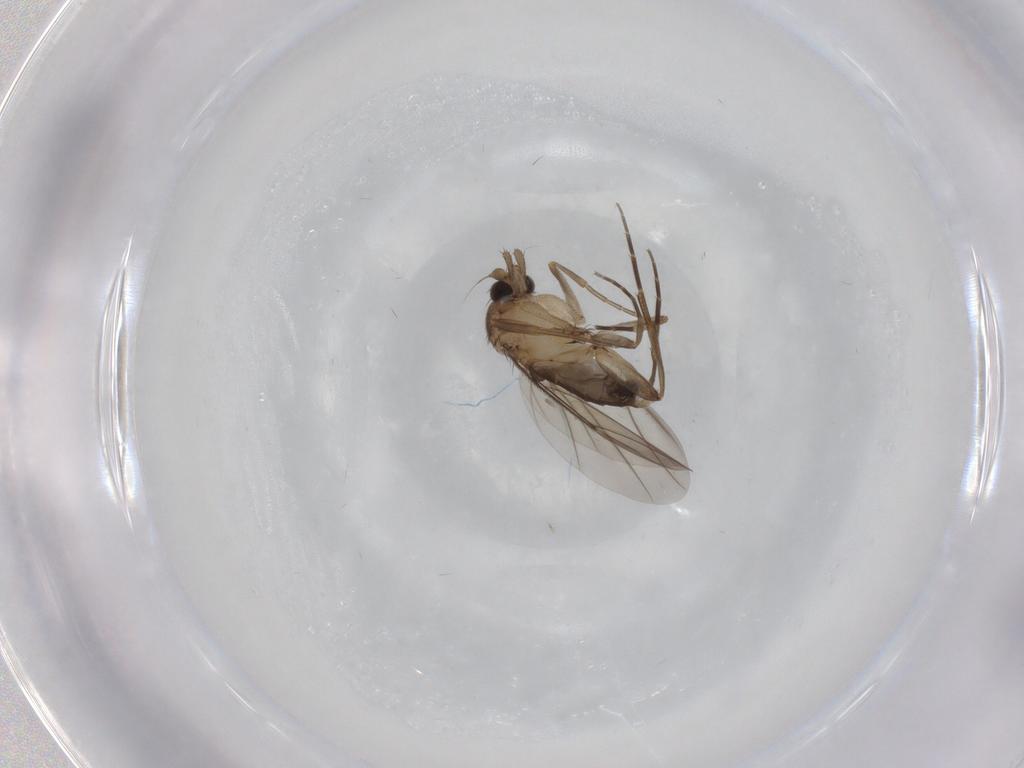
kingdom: Animalia
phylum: Arthropoda
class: Insecta
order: Diptera
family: Phoridae
